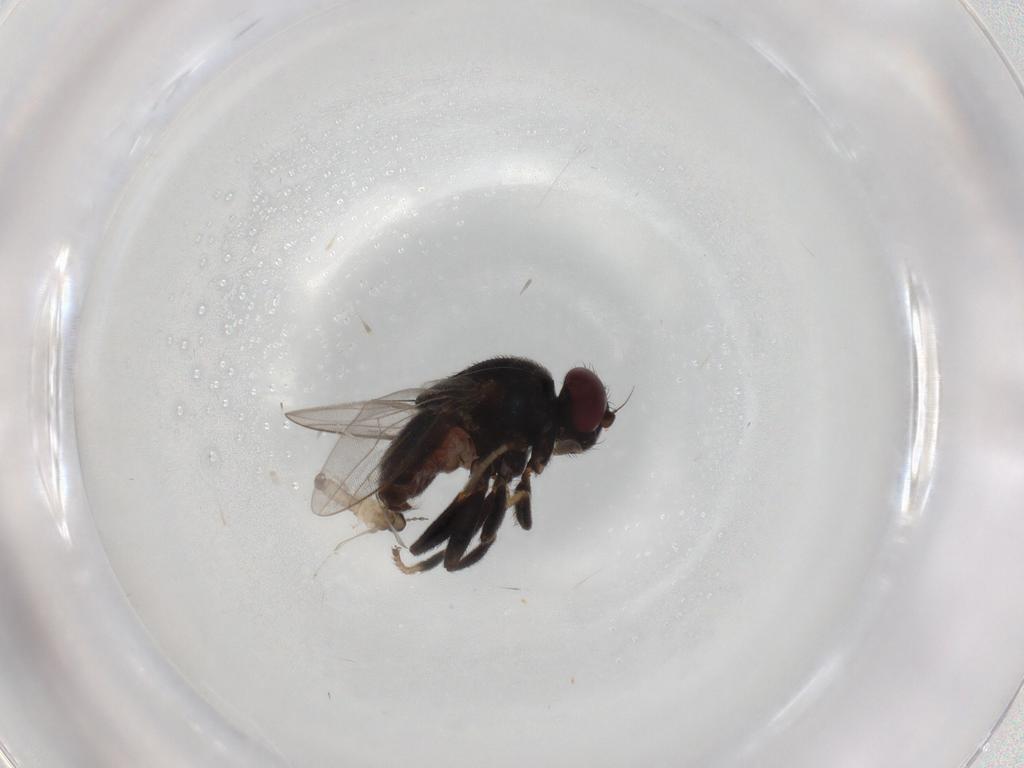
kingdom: Animalia
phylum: Arthropoda
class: Insecta
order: Diptera
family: Chloropidae
